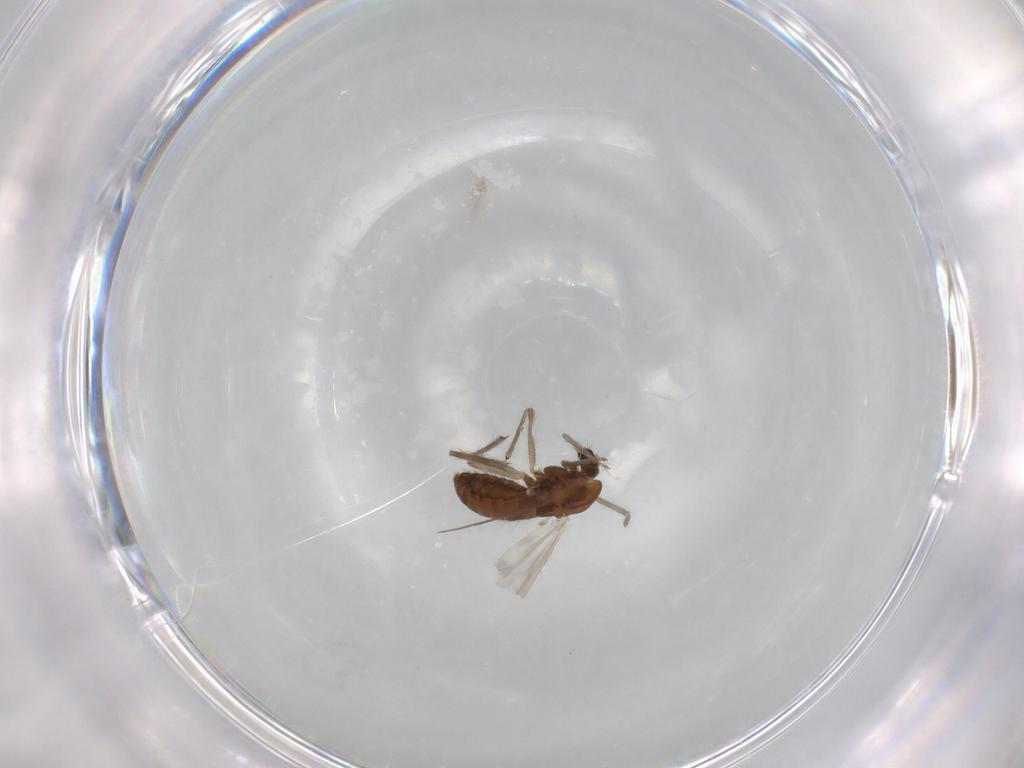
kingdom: Animalia
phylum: Arthropoda
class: Insecta
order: Diptera
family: Chironomidae
